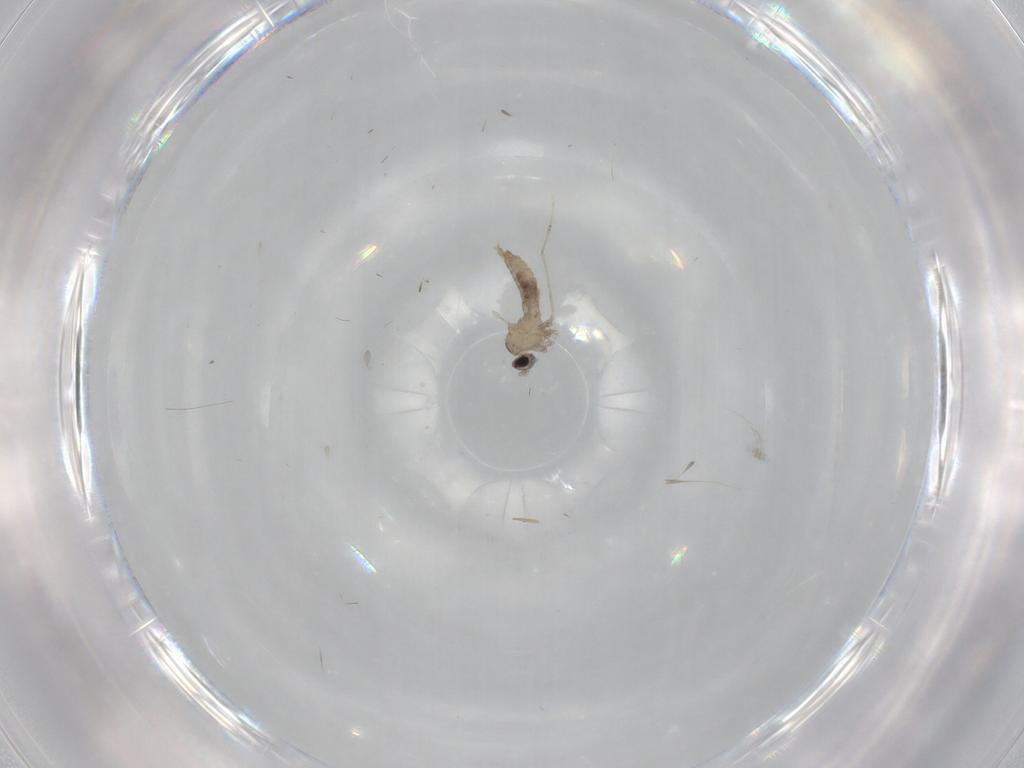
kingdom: Animalia
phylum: Arthropoda
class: Insecta
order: Diptera
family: Cecidomyiidae
